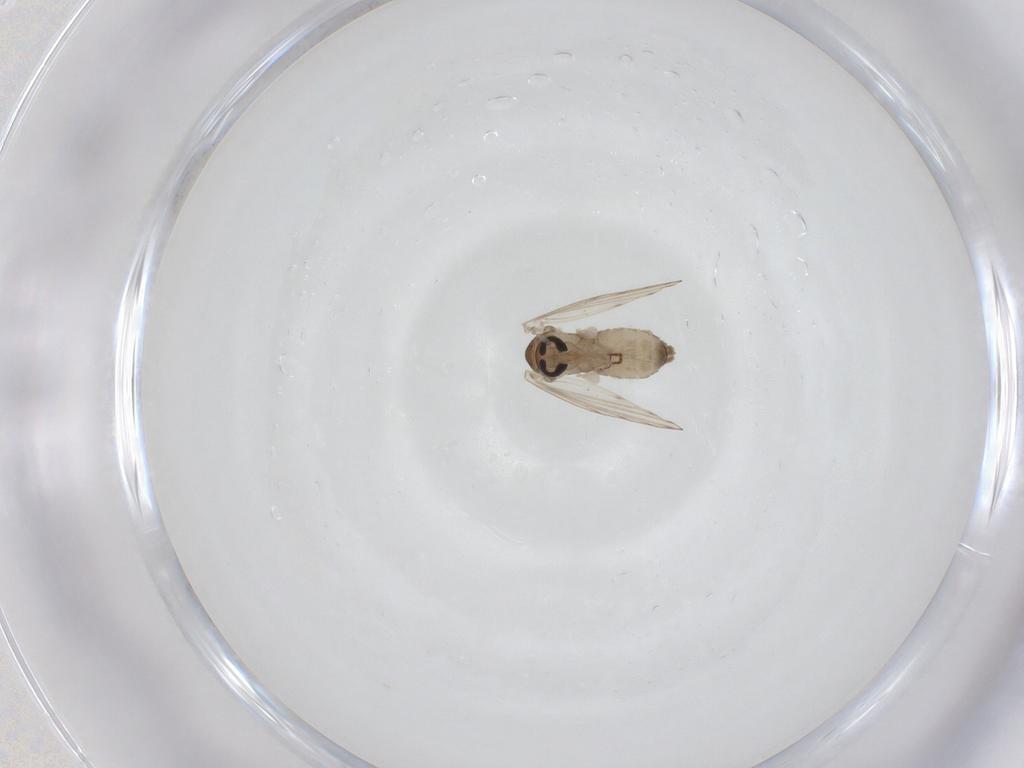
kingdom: Animalia
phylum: Arthropoda
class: Insecta
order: Diptera
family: Psychodidae
